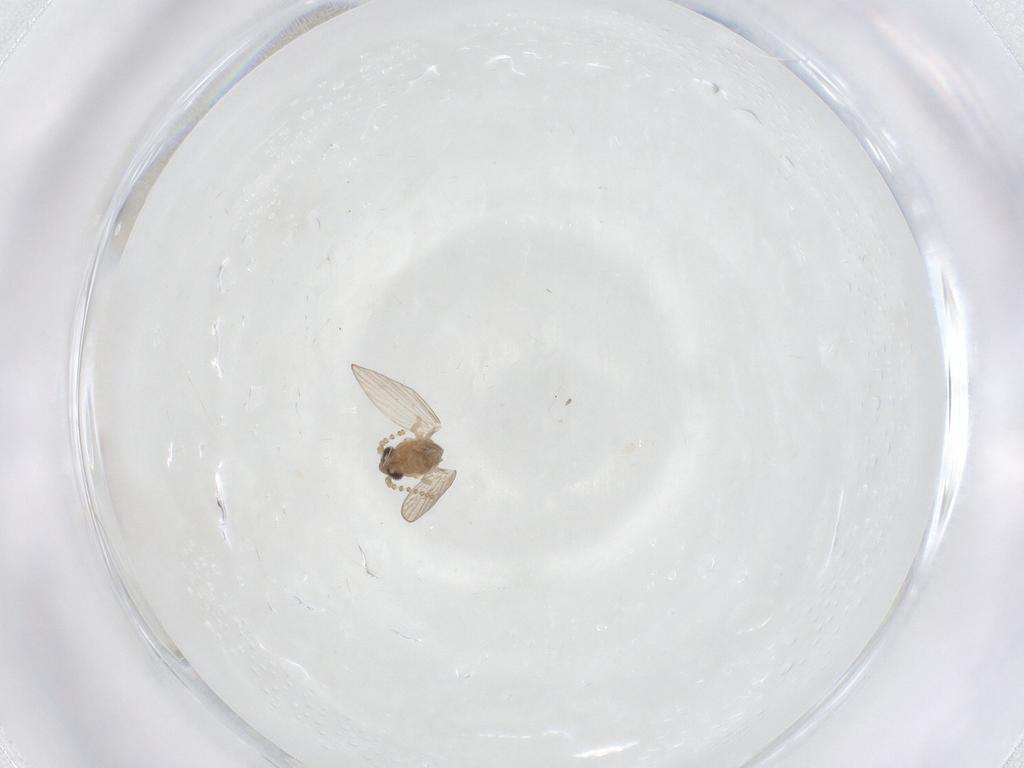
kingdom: Animalia
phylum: Arthropoda
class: Insecta
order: Diptera
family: Psychodidae
